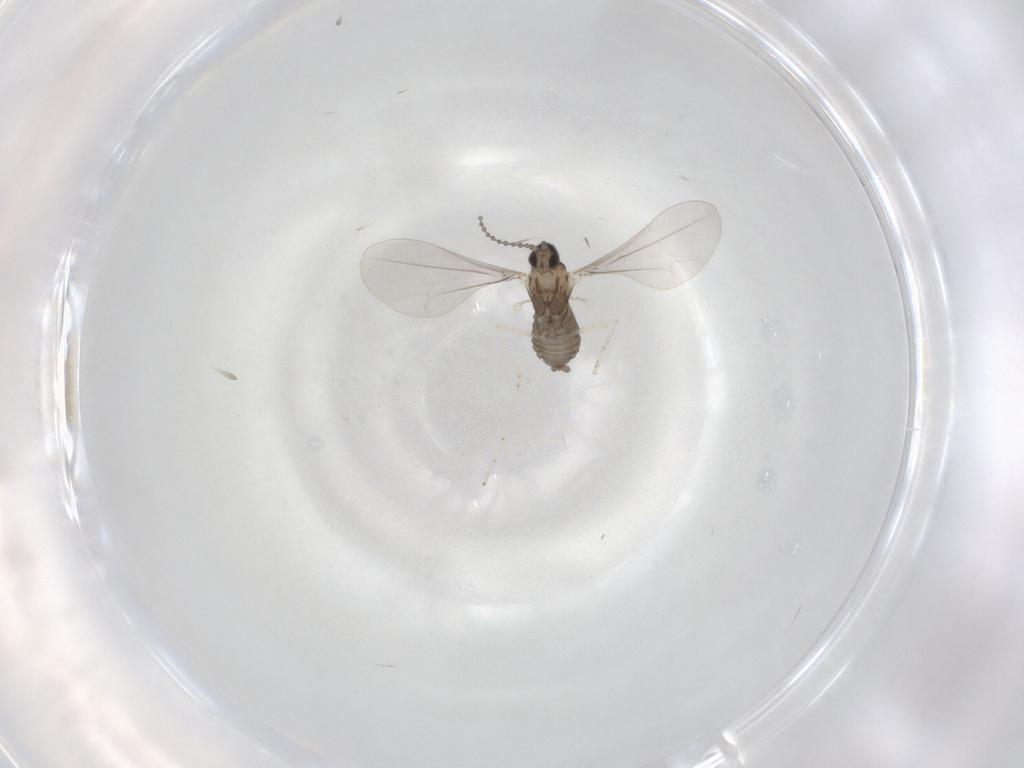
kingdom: Animalia
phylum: Arthropoda
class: Insecta
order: Diptera
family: Cecidomyiidae
